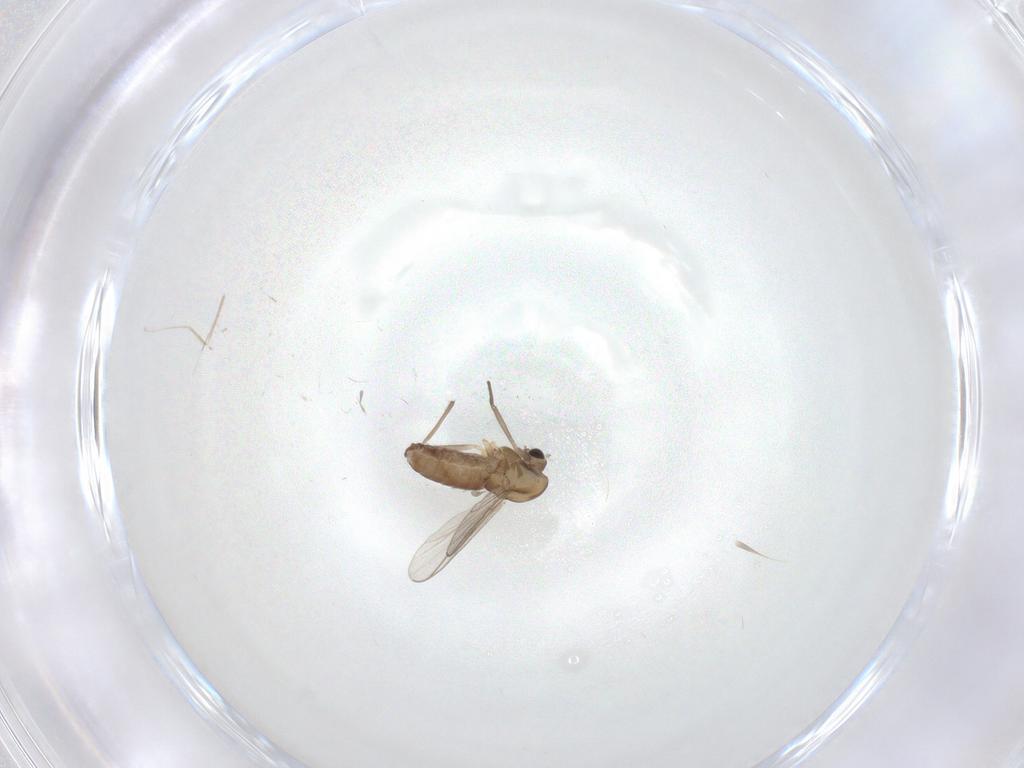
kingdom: Animalia
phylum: Arthropoda
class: Insecta
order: Diptera
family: Chironomidae
